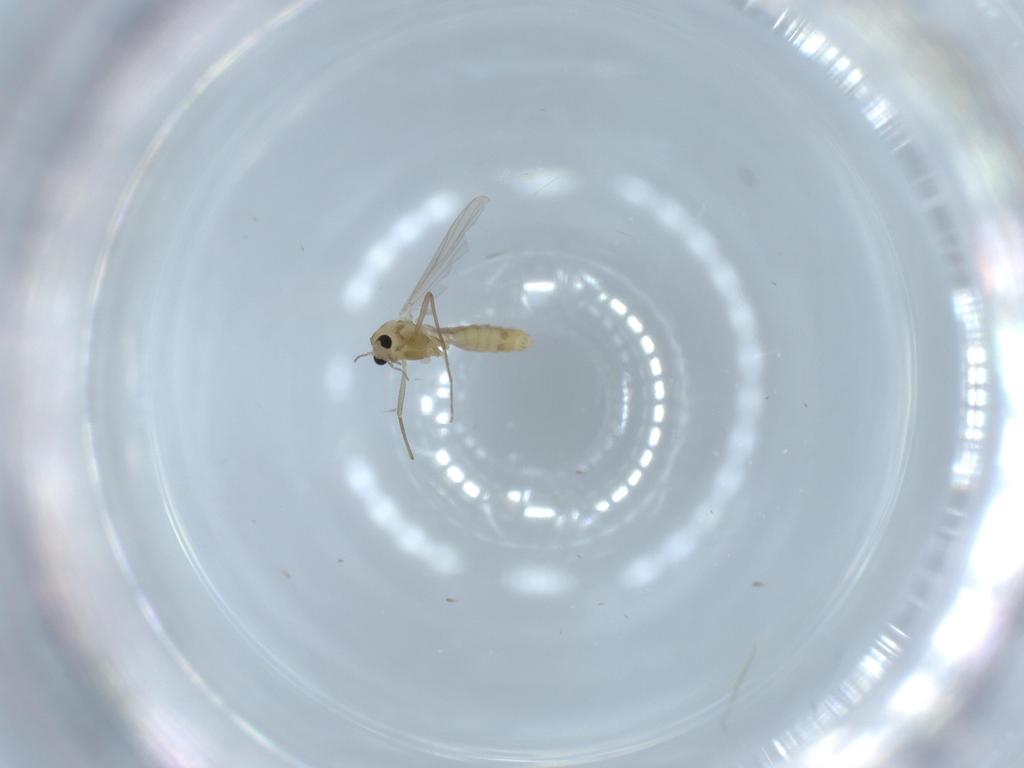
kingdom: Animalia
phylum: Arthropoda
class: Insecta
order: Diptera
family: Chironomidae
